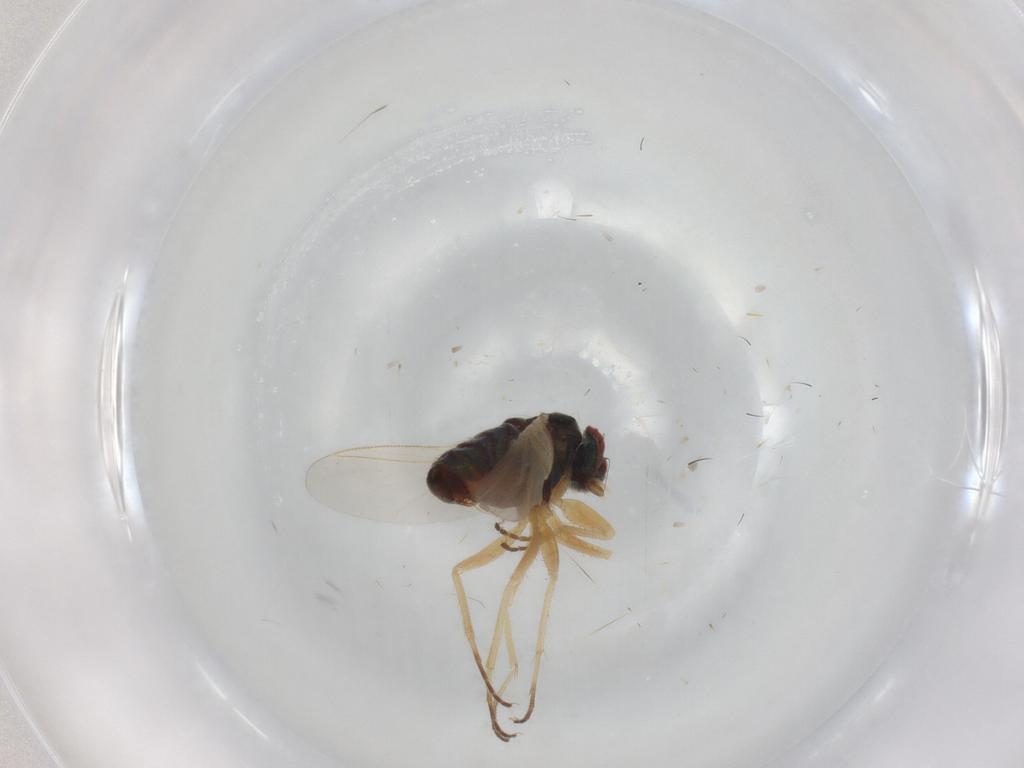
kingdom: Animalia
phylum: Arthropoda
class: Insecta
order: Diptera
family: Dolichopodidae
